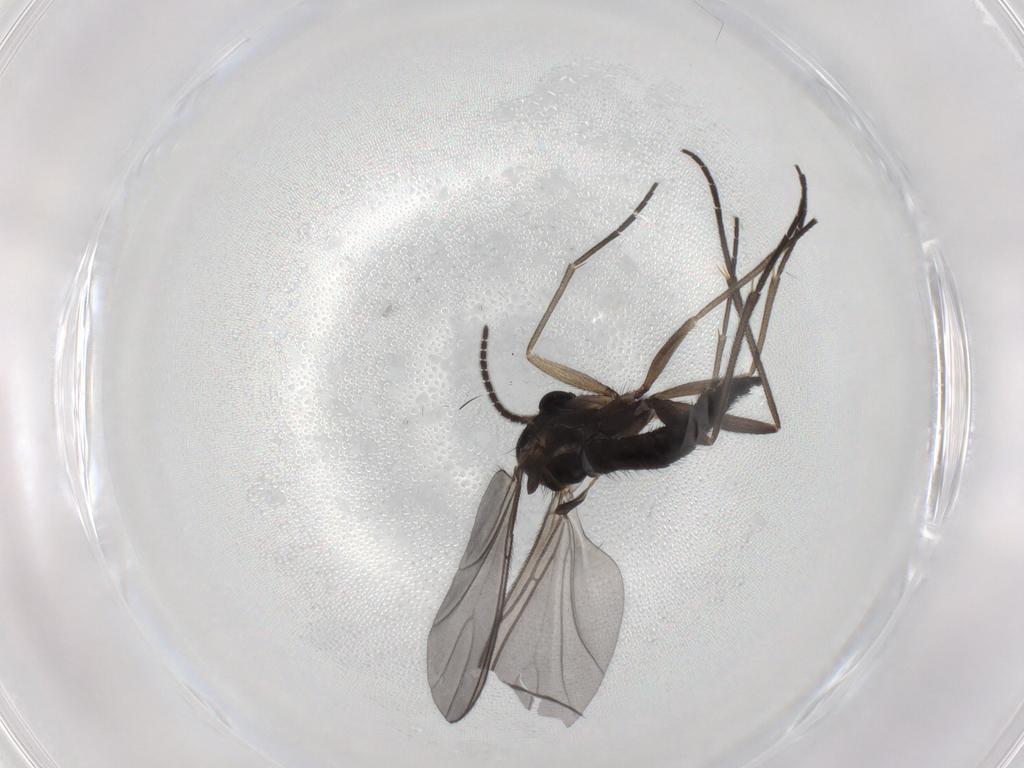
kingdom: Animalia
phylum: Arthropoda
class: Insecta
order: Diptera
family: Sciaridae
